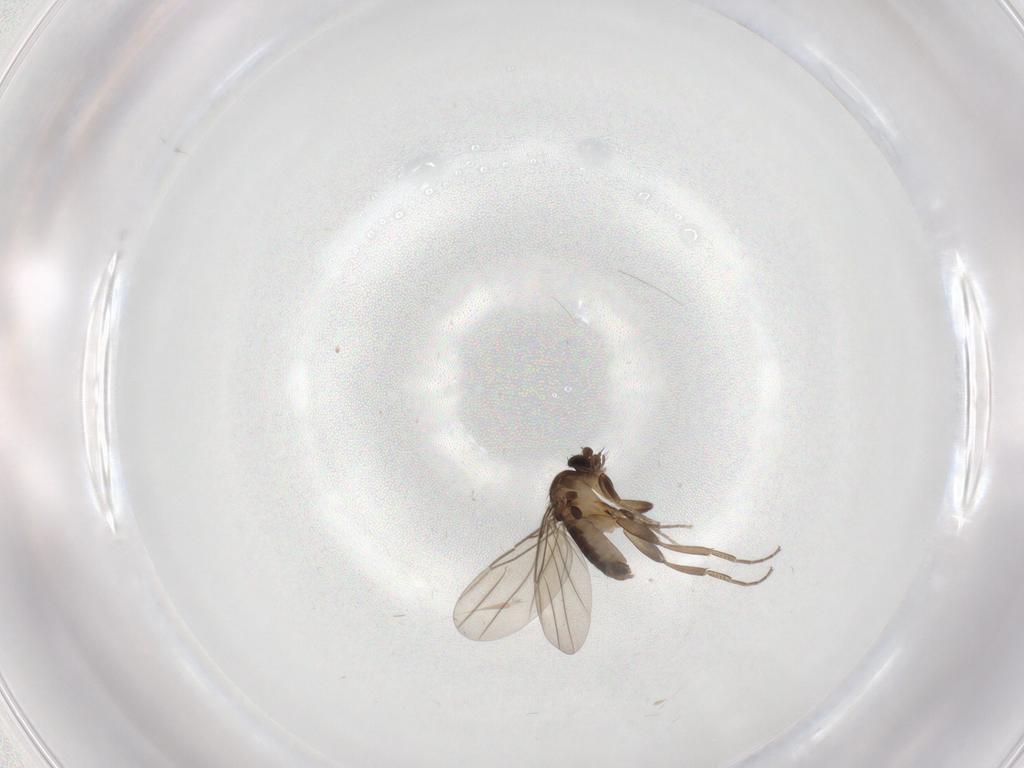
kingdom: Animalia
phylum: Arthropoda
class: Insecta
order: Diptera
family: Phoridae
